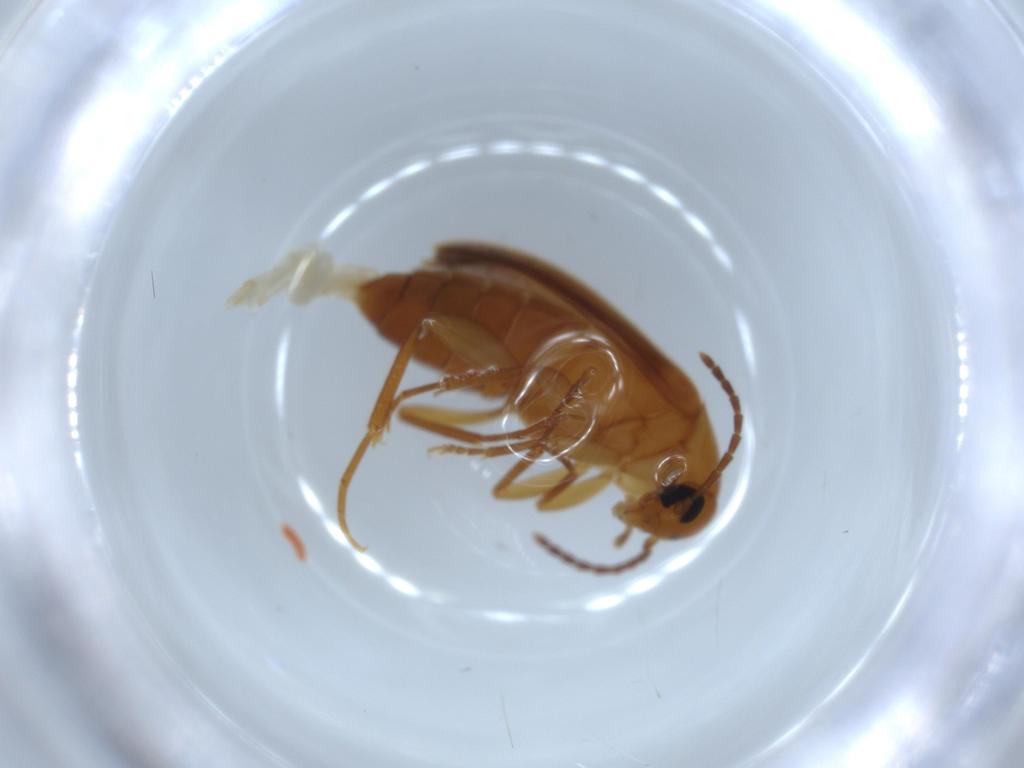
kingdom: Animalia
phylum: Arthropoda
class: Insecta
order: Coleoptera
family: Scraptiidae
